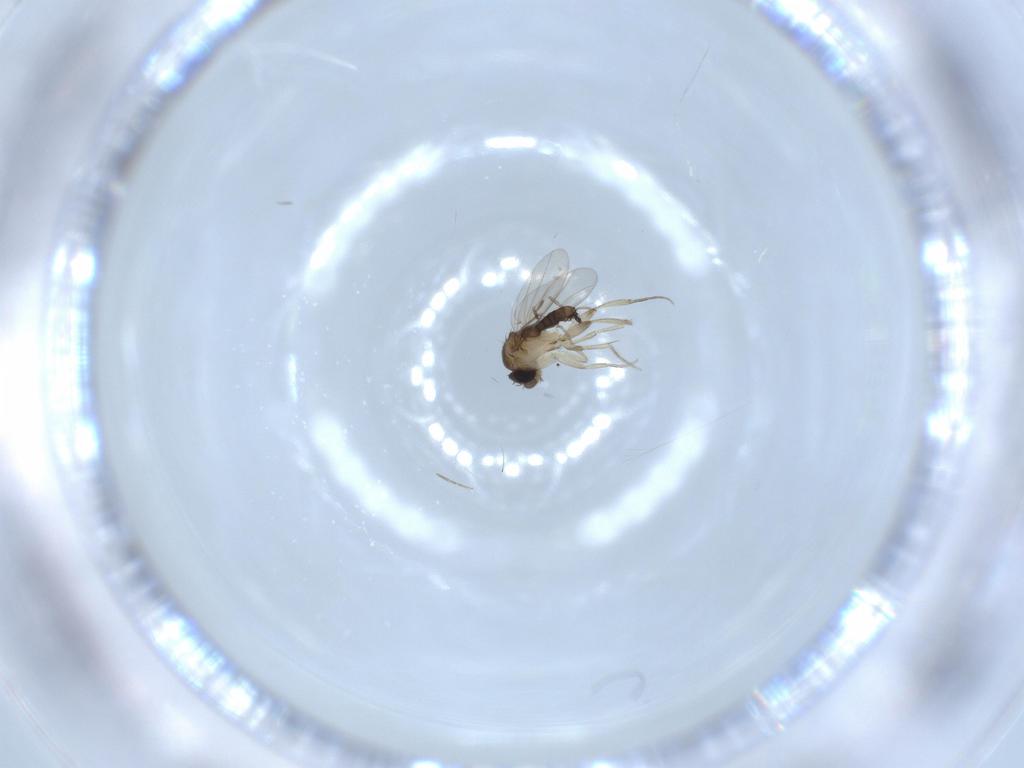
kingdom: Animalia
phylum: Arthropoda
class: Insecta
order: Diptera
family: Phoridae
